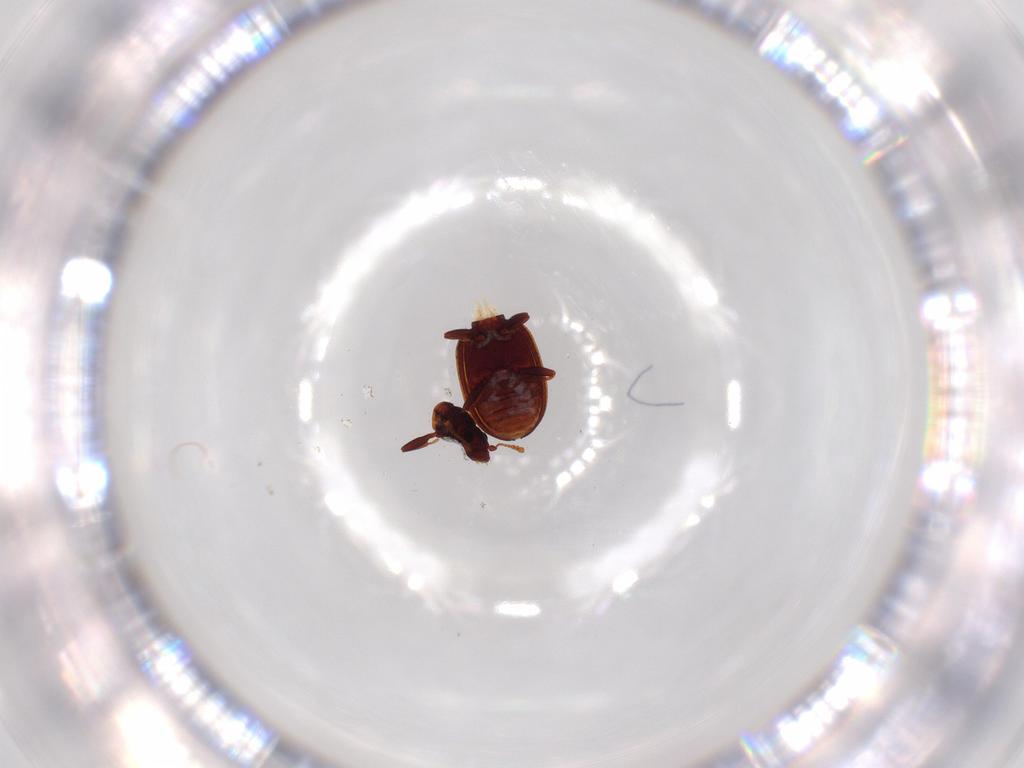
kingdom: Animalia
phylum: Arthropoda
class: Insecta
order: Coleoptera
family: Latridiidae
